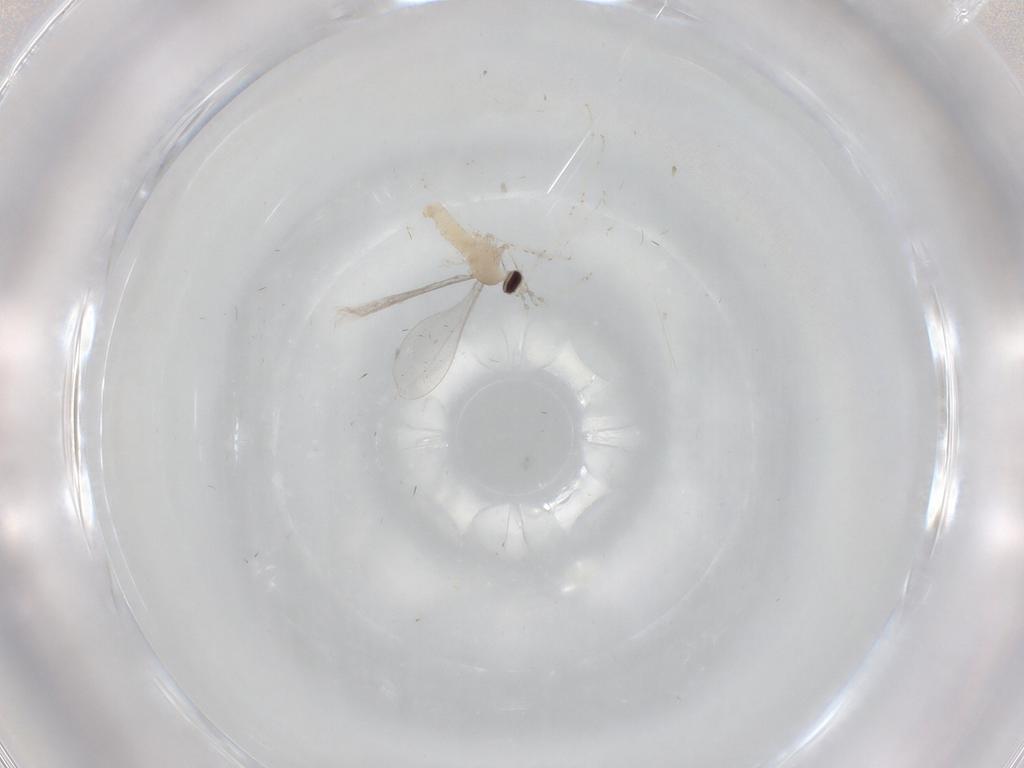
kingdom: Animalia
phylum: Arthropoda
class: Insecta
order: Diptera
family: Cecidomyiidae
